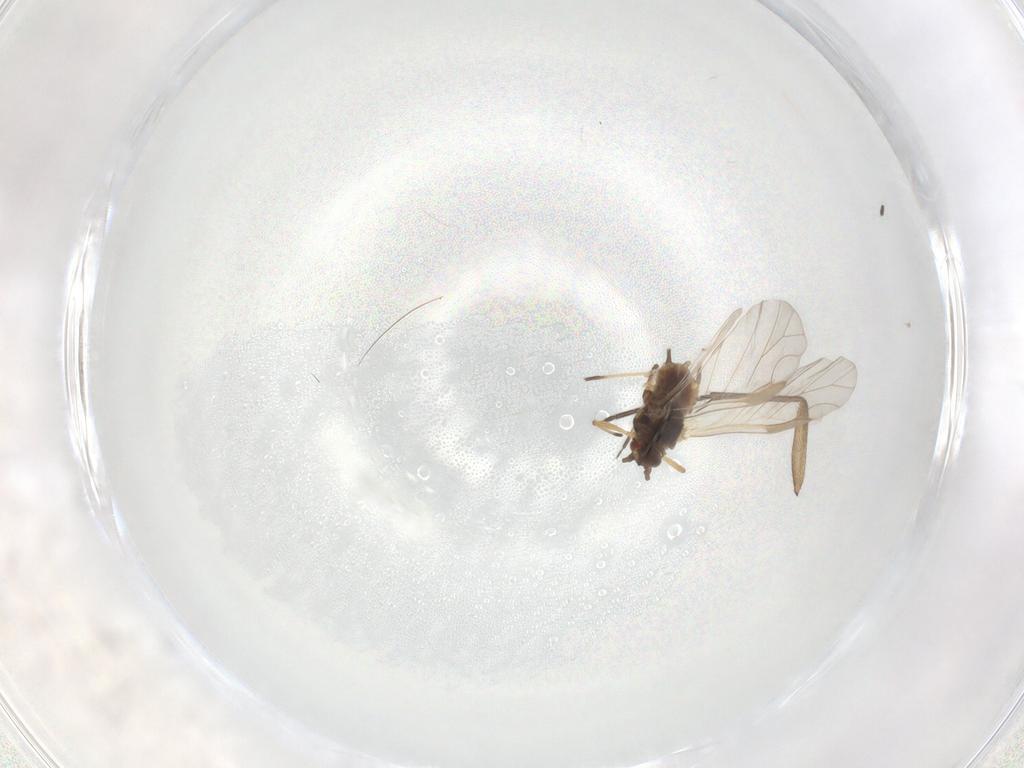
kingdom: Animalia
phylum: Arthropoda
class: Insecta
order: Hemiptera
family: Aphididae
